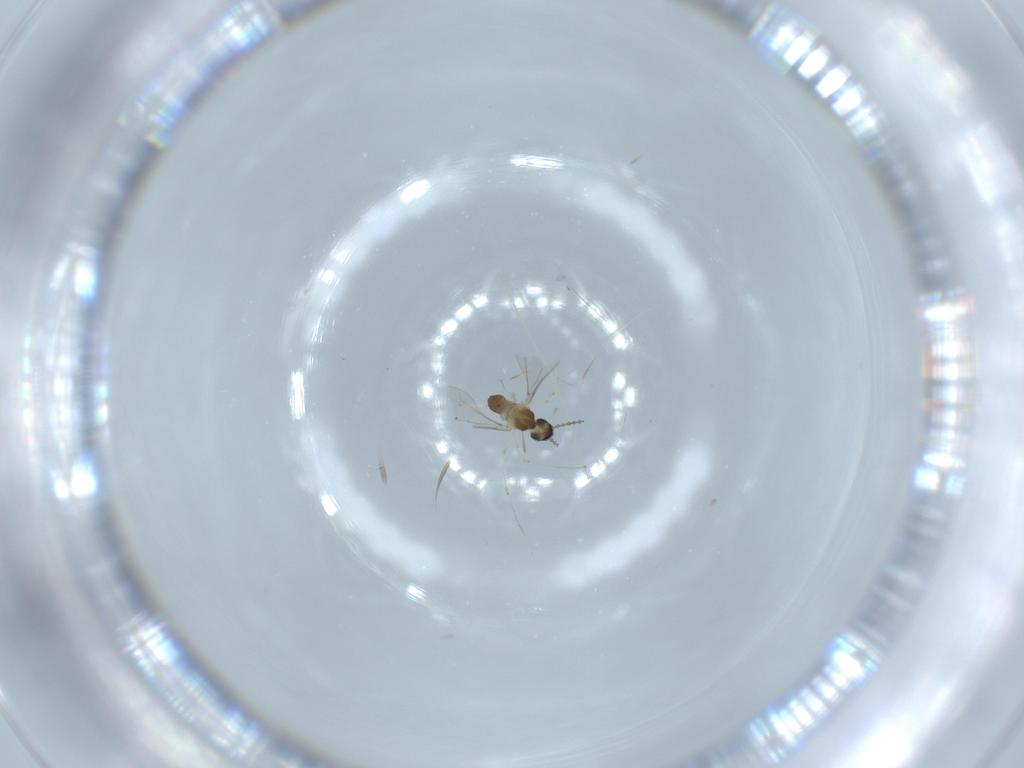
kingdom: Animalia
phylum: Arthropoda
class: Insecta
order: Diptera
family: Cecidomyiidae
